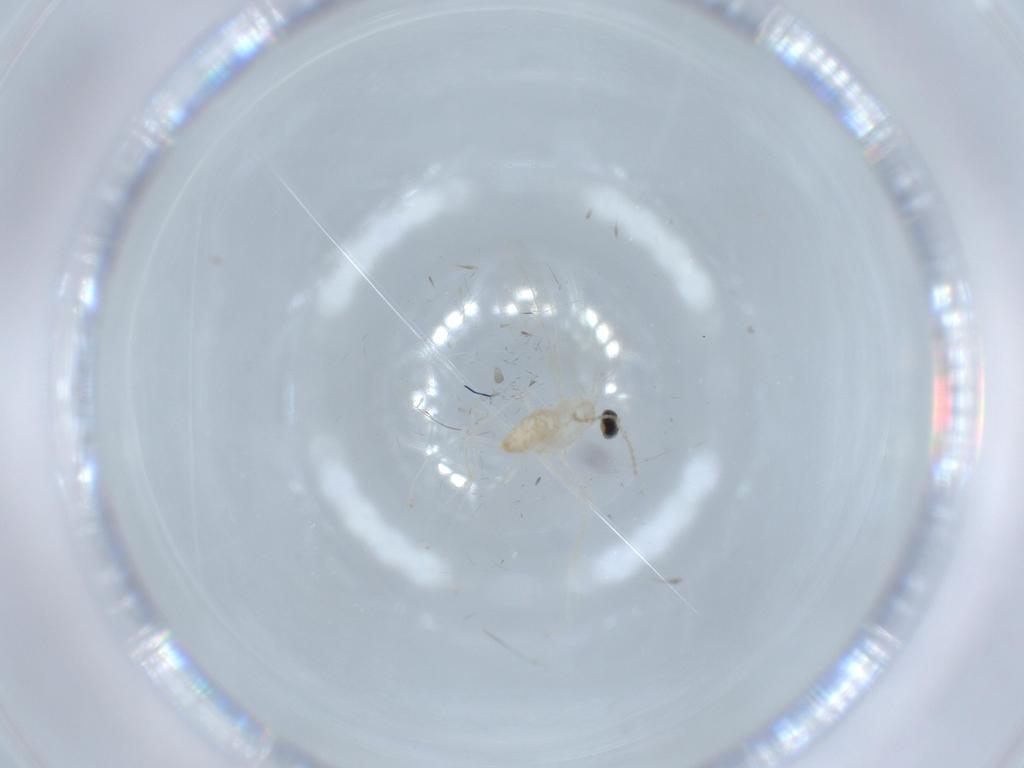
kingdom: Animalia
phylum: Arthropoda
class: Insecta
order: Diptera
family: Cecidomyiidae
